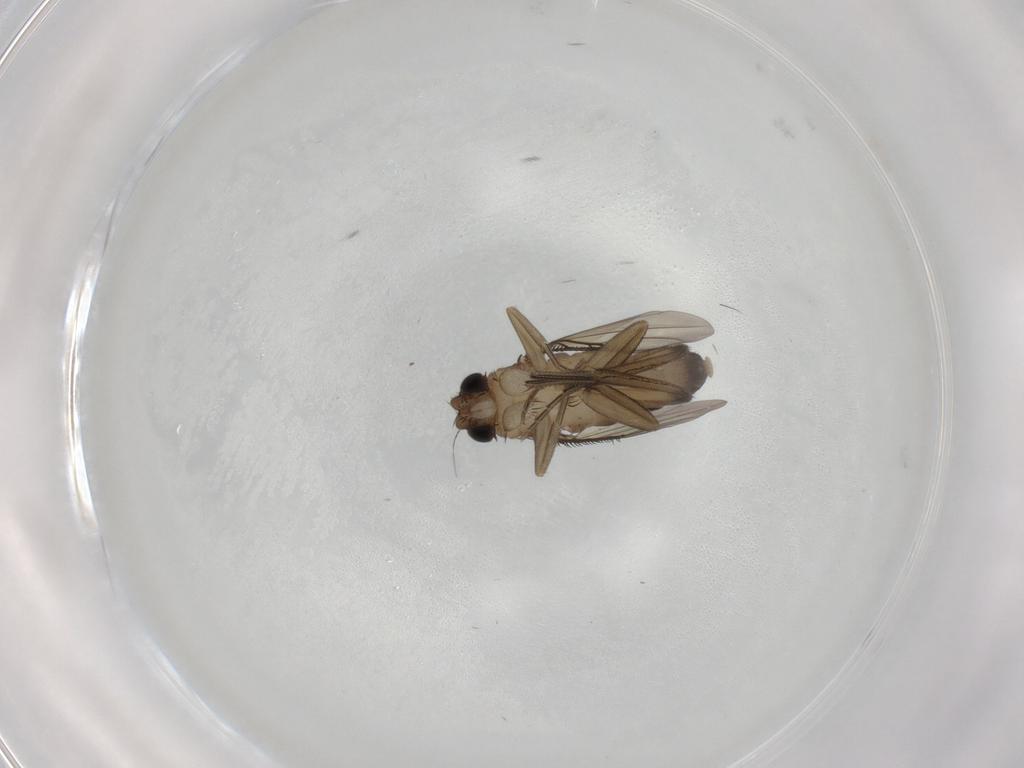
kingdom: Animalia
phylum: Arthropoda
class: Insecta
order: Diptera
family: Phoridae
